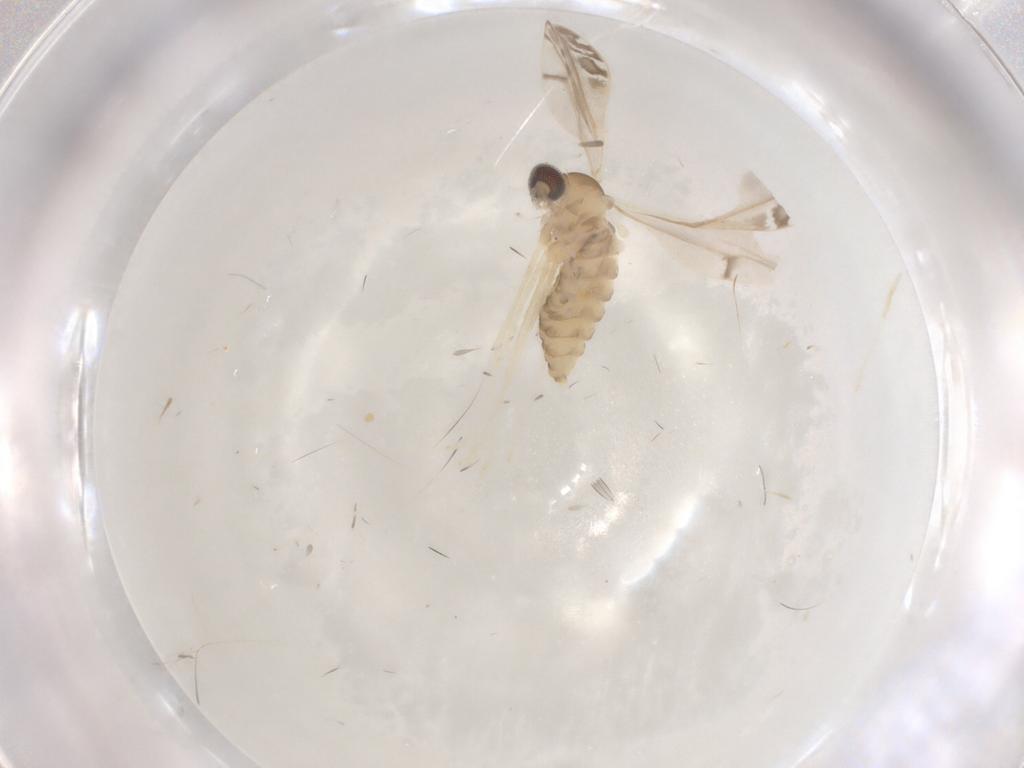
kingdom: Animalia
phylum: Arthropoda
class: Insecta
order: Diptera
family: Cecidomyiidae
